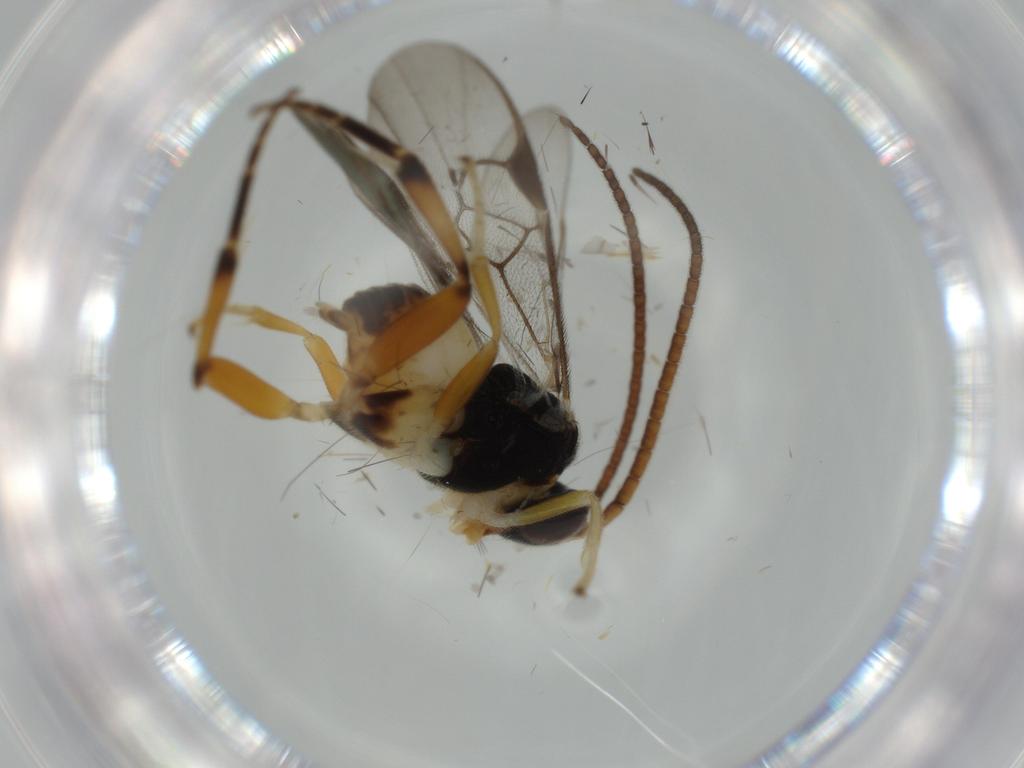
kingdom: Animalia
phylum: Arthropoda
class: Insecta
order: Hymenoptera
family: Braconidae
